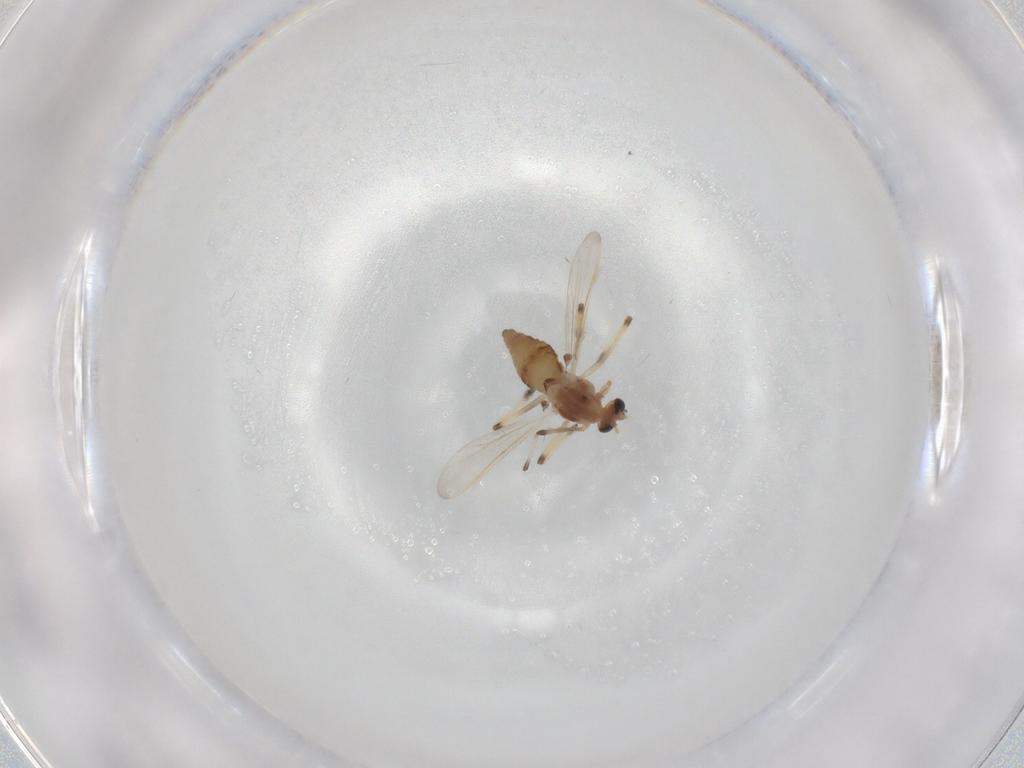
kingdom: Animalia
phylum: Arthropoda
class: Insecta
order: Diptera
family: Chironomidae
